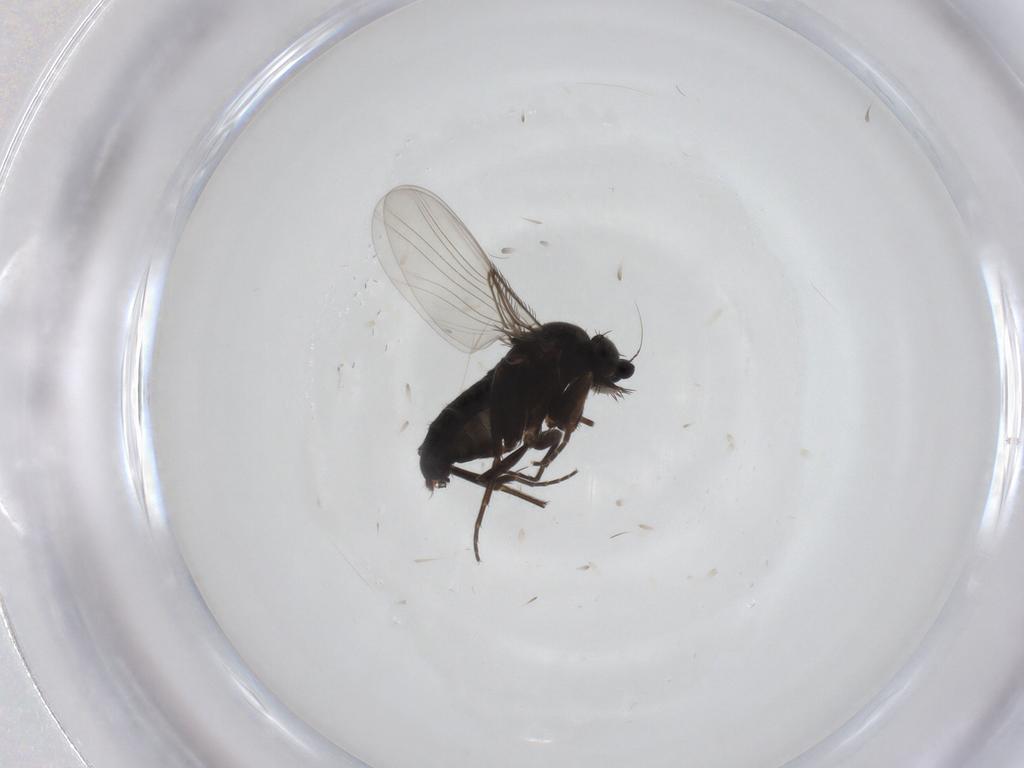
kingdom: Animalia
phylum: Arthropoda
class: Insecta
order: Diptera
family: Phoridae
